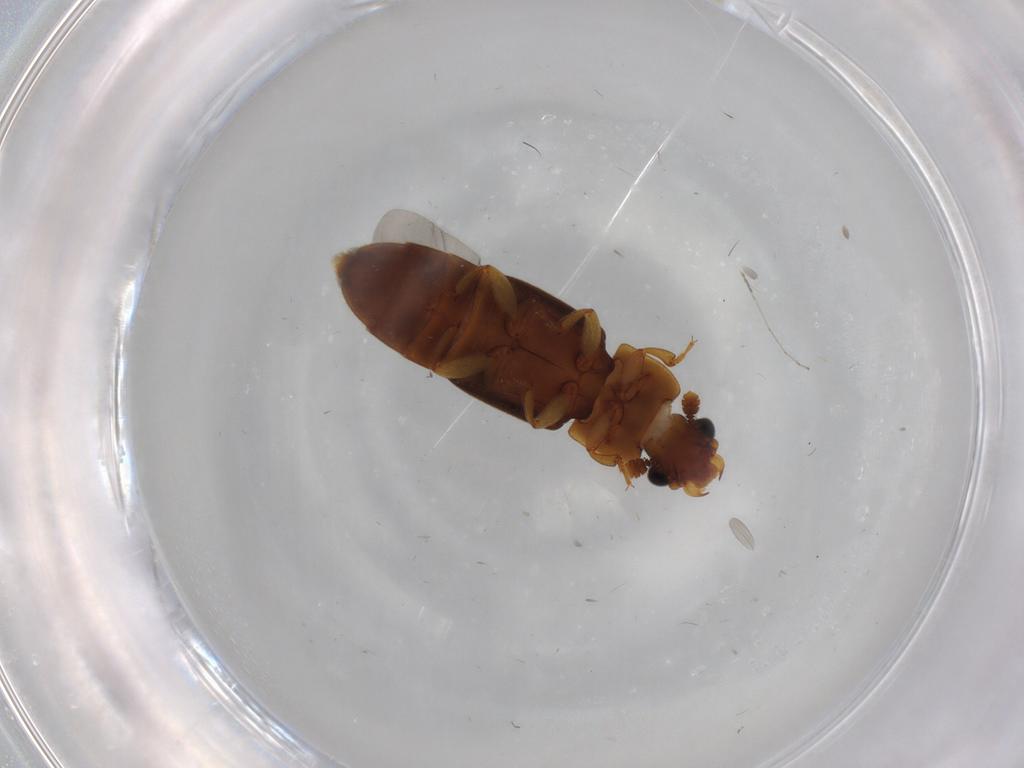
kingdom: Animalia
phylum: Arthropoda
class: Insecta
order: Coleoptera
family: Nitidulidae
